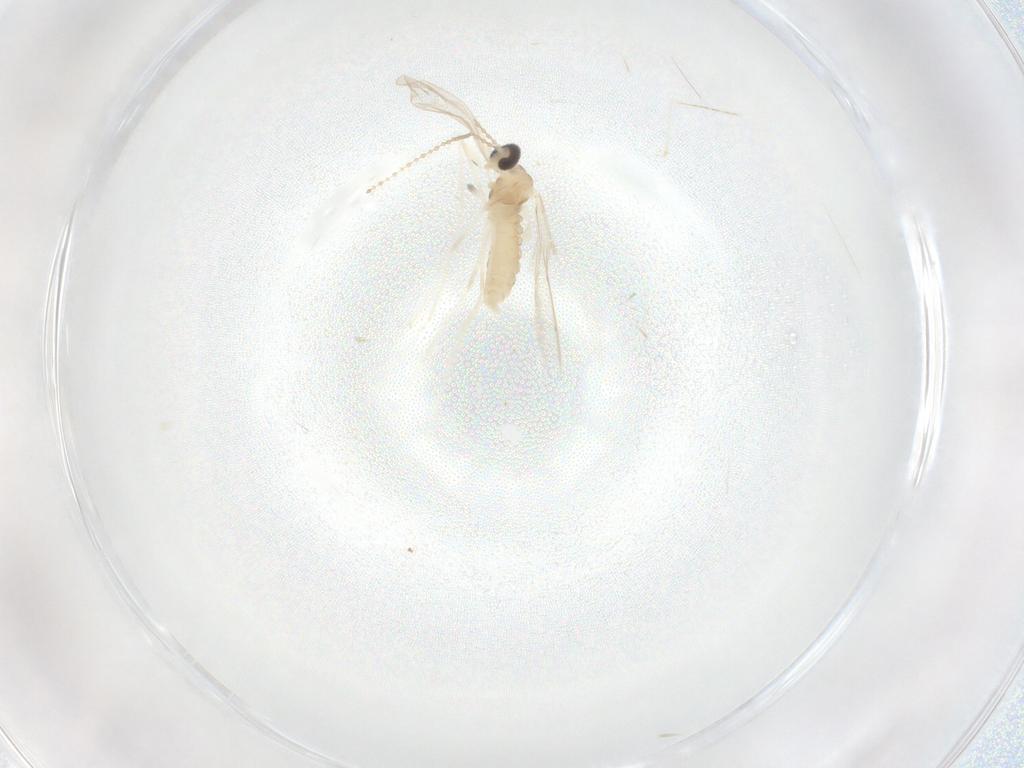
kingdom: Animalia
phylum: Arthropoda
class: Insecta
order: Diptera
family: Cecidomyiidae
